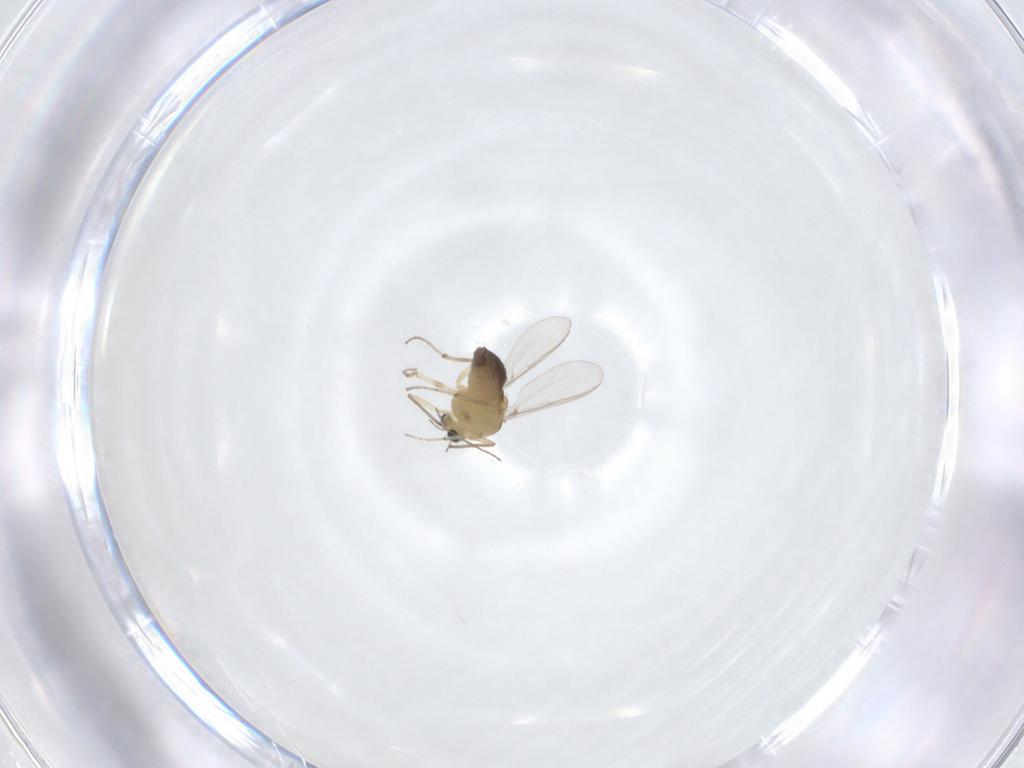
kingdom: Animalia
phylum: Arthropoda
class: Insecta
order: Diptera
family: Chironomidae
